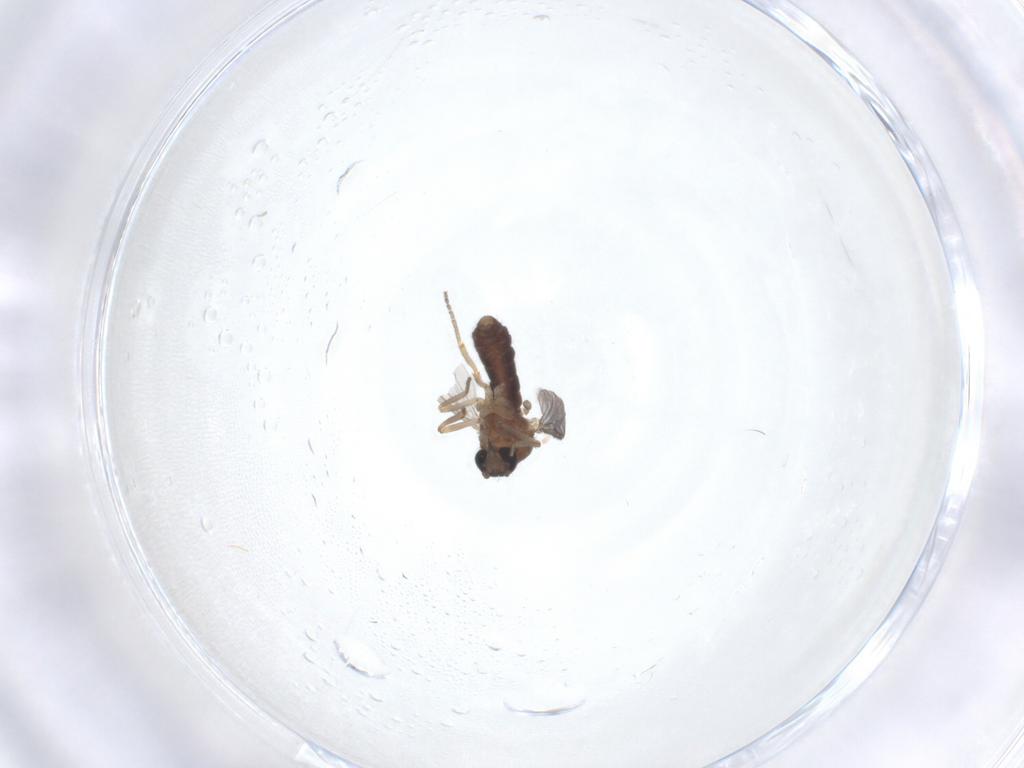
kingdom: Animalia
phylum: Arthropoda
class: Insecta
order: Diptera
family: Ceratopogonidae
